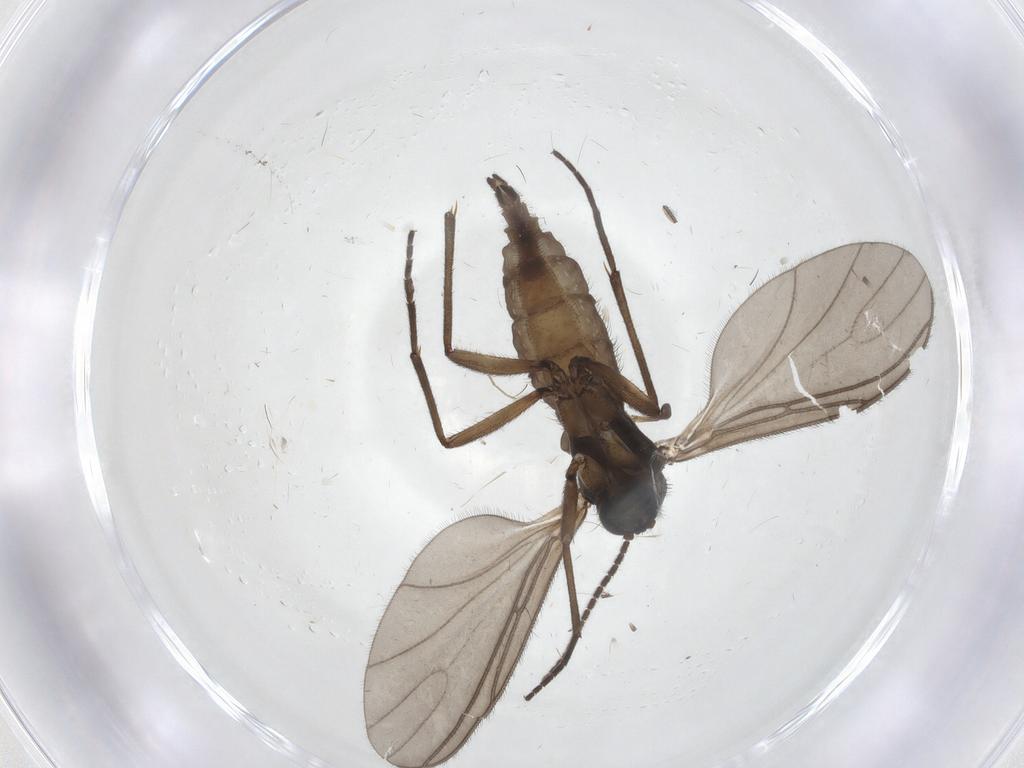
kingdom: Animalia
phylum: Arthropoda
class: Insecta
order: Diptera
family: Sciaridae
